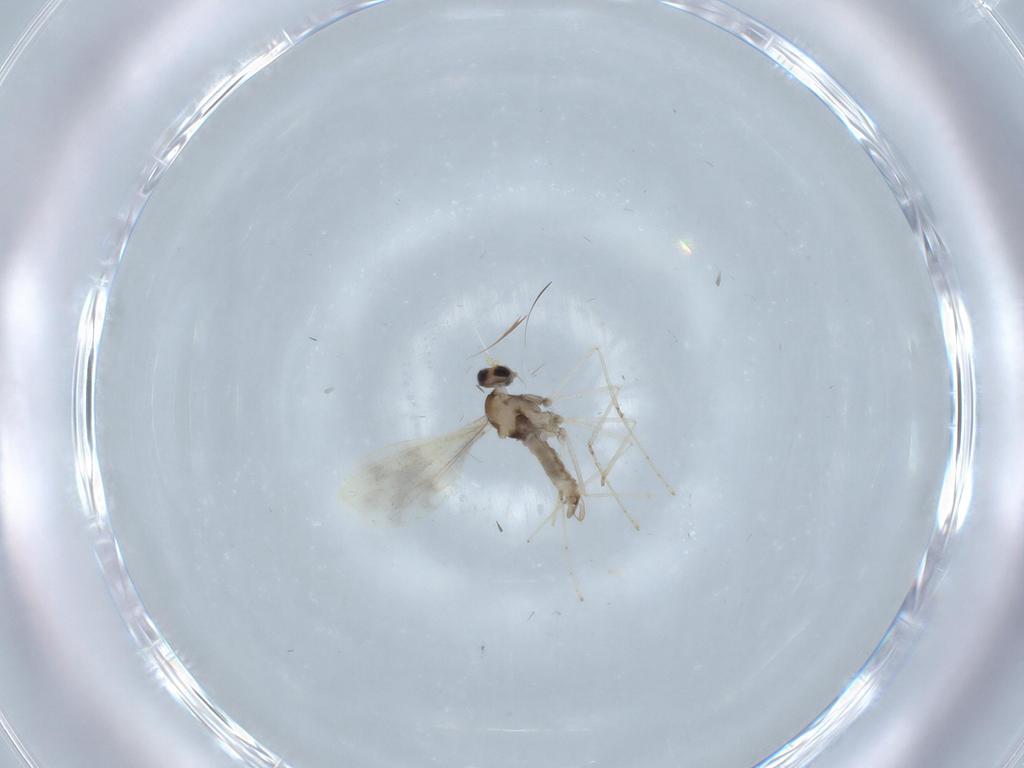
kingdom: Animalia
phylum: Arthropoda
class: Insecta
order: Diptera
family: Cecidomyiidae
